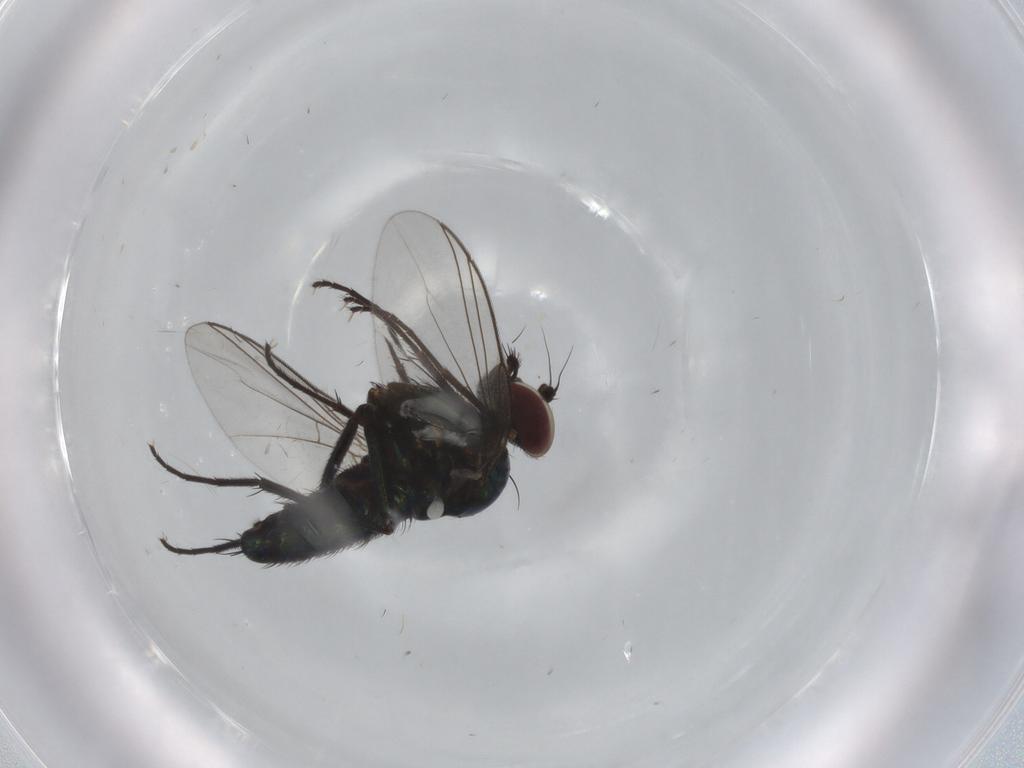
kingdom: Animalia
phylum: Arthropoda
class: Insecta
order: Diptera
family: Dolichopodidae
